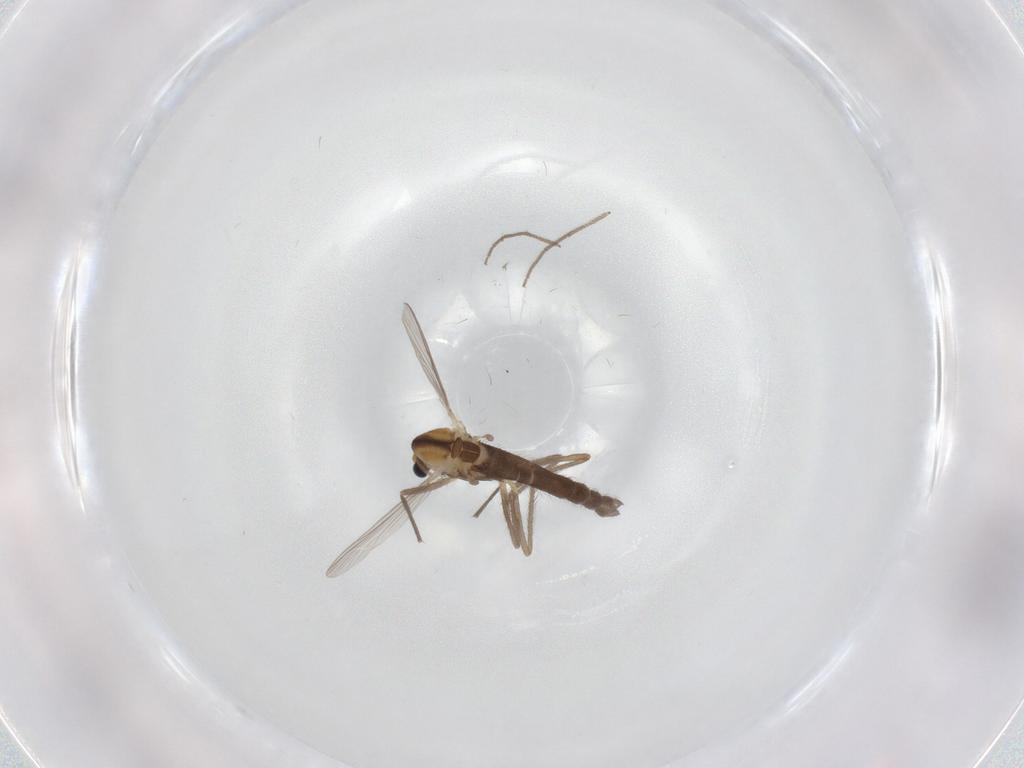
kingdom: Animalia
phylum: Arthropoda
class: Insecta
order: Diptera
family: Chironomidae
